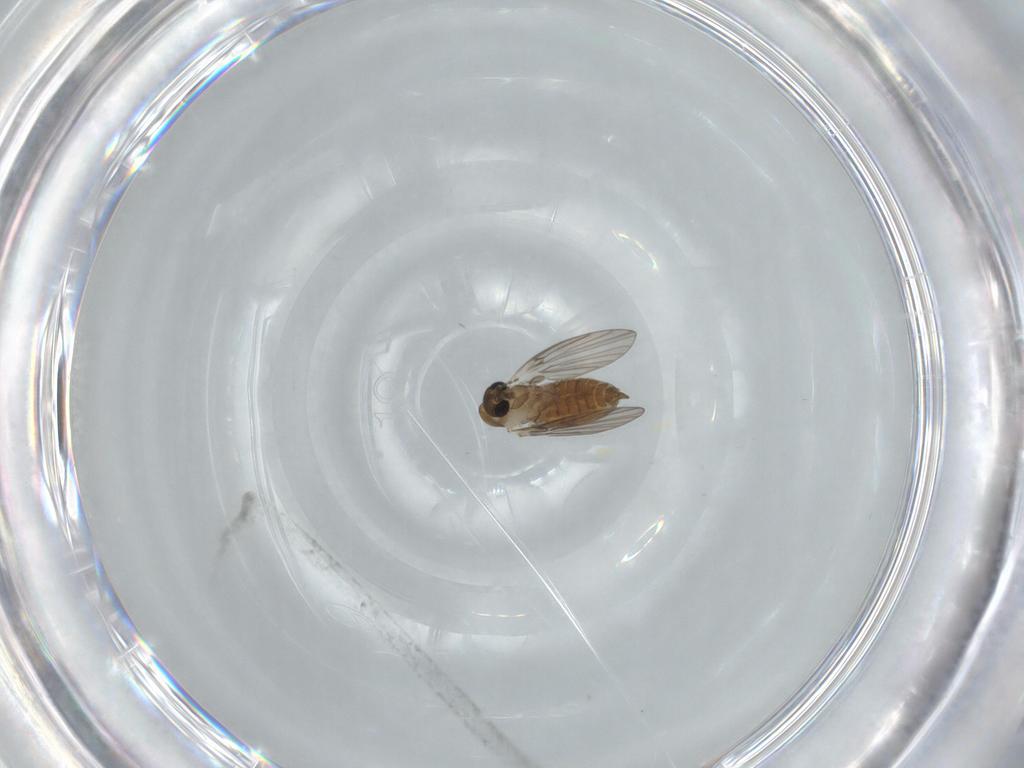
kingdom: Animalia
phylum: Arthropoda
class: Insecta
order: Diptera
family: Psychodidae
